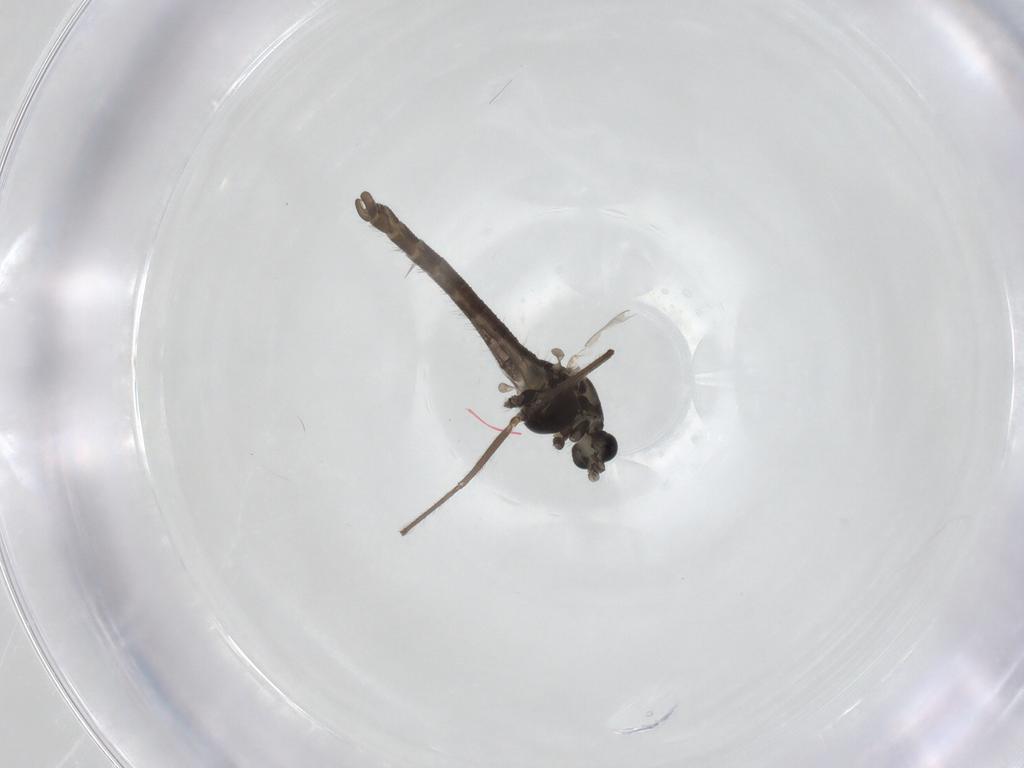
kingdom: Animalia
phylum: Arthropoda
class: Insecta
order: Diptera
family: Chironomidae
